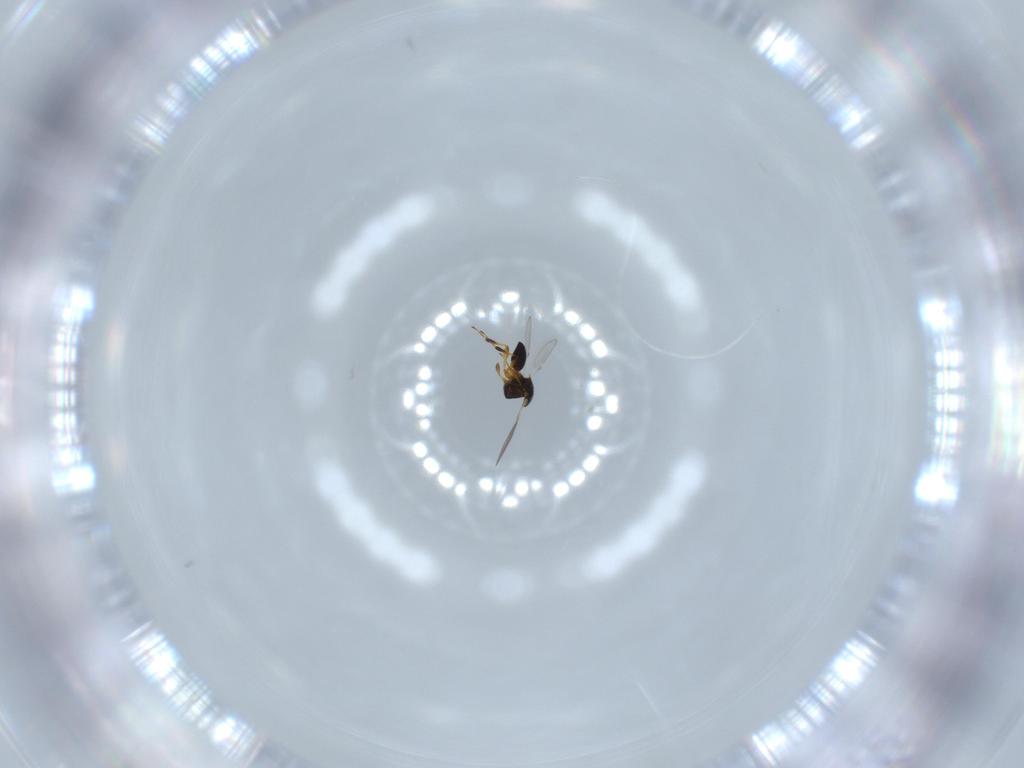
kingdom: Animalia
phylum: Arthropoda
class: Insecta
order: Hymenoptera
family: Platygastridae
